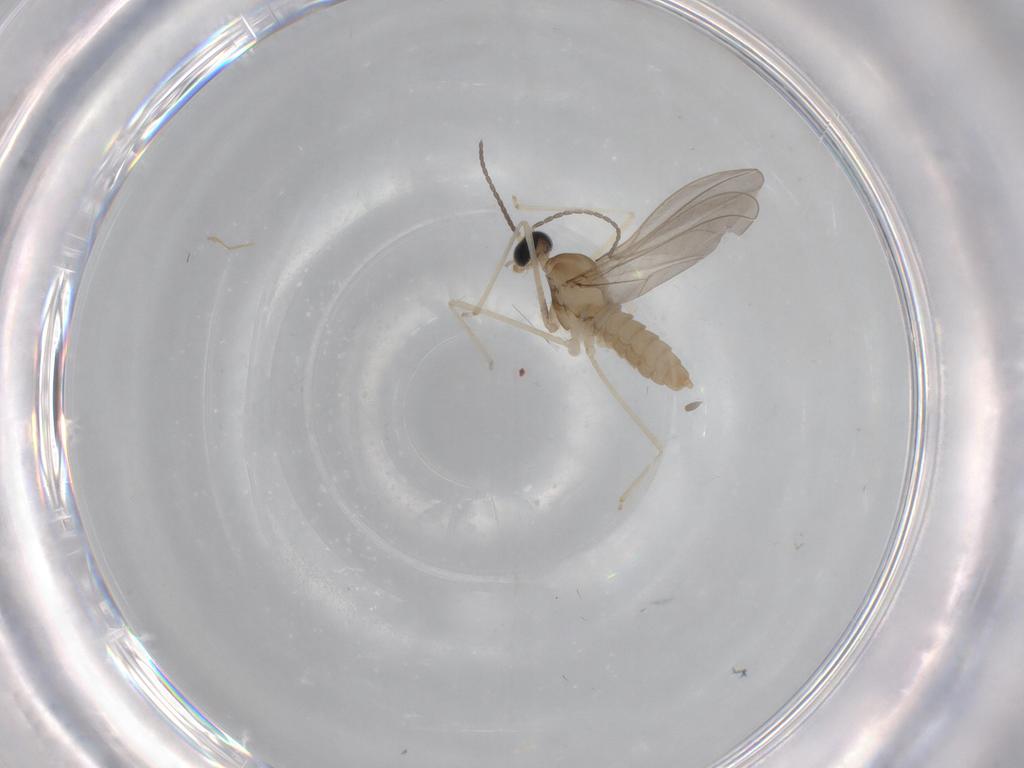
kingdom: Animalia
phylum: Arthropoda
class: Insecta
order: Diptera
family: Cecidomyiidae
